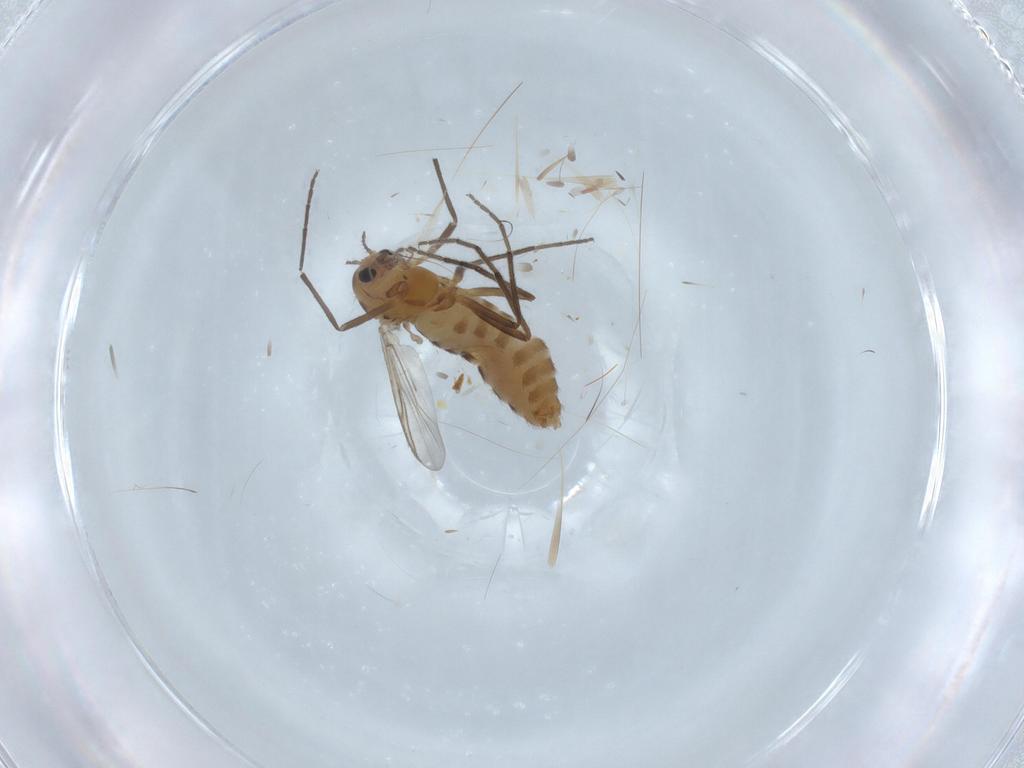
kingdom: Animalia
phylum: Arthropoda
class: Insecta
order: Diptera
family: Chironomidae
